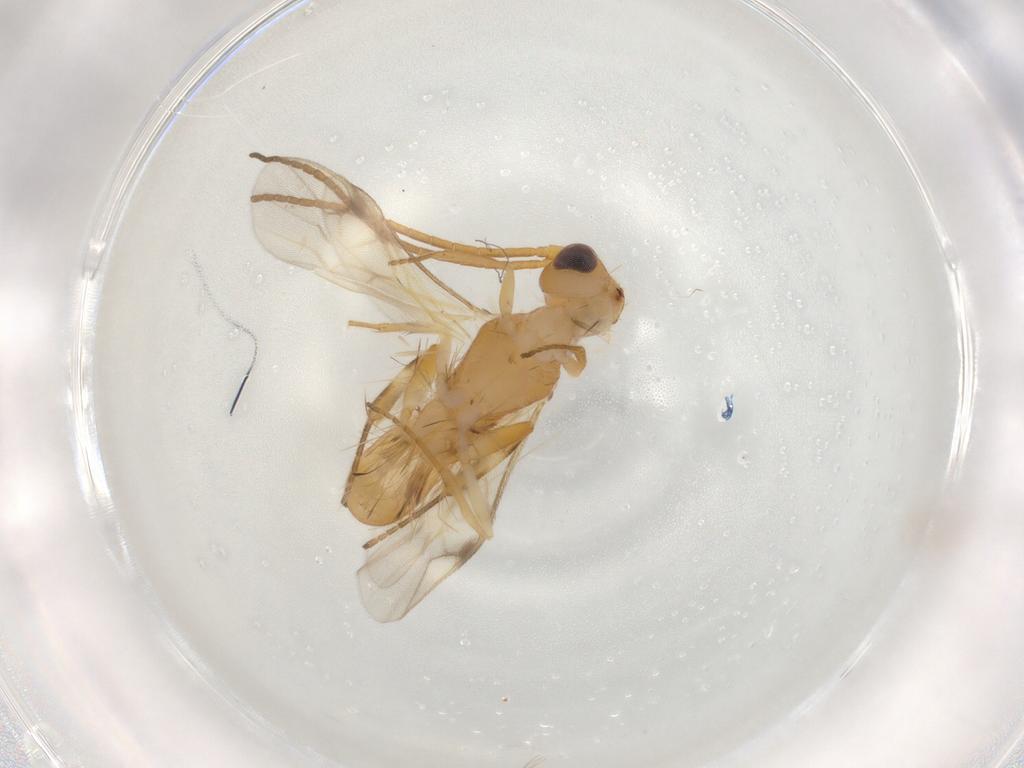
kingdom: Animalia
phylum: Arthropoda
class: Insecta
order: Hymenoptera
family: Braconidae
